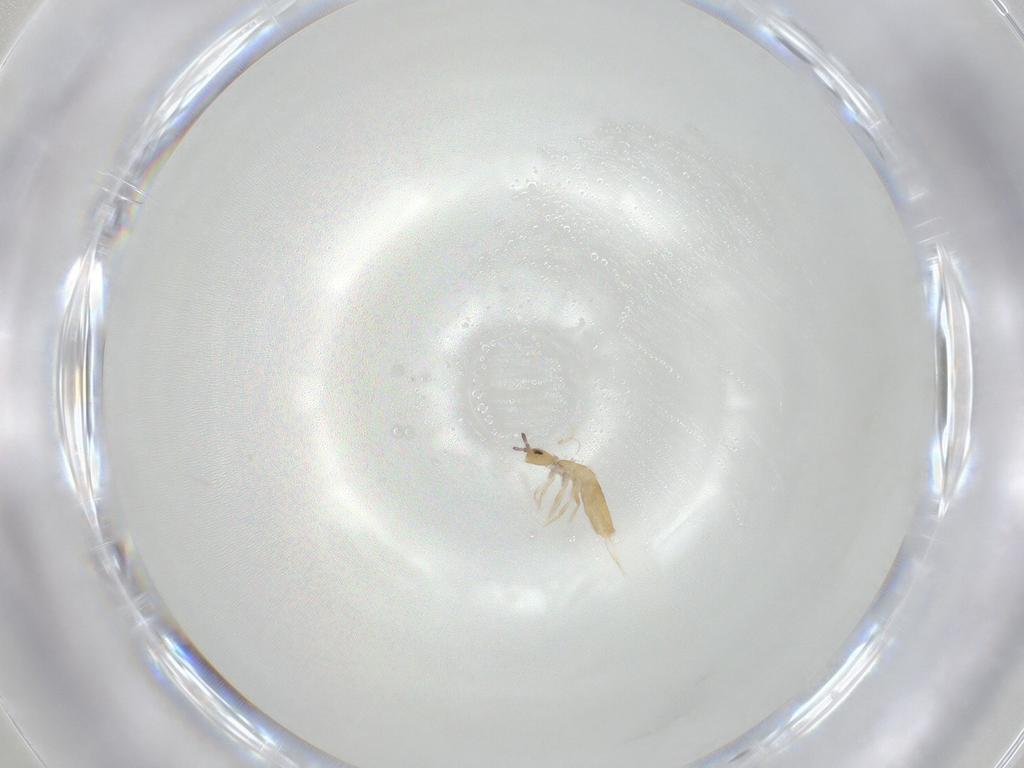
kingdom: Animalia
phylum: Arthropoda
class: Collembola
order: Entomobryomorpha
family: Entomobryidae
